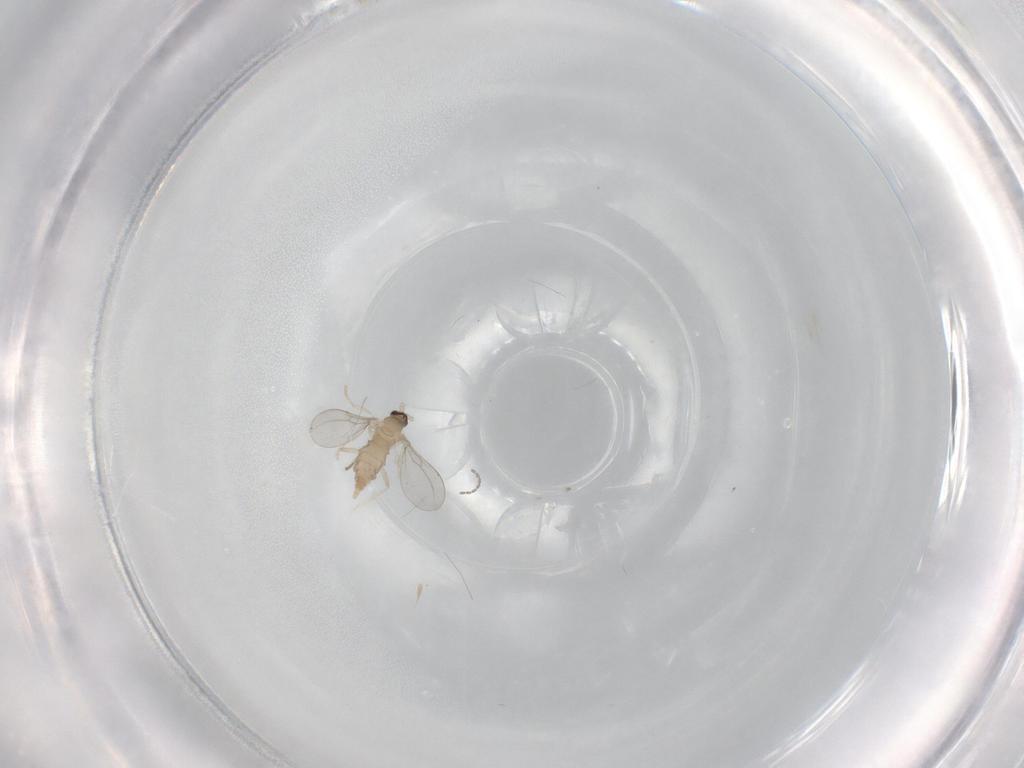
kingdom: Animalia
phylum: Arthropoda
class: Insecta
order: Diptera
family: Cecidomyiidae
